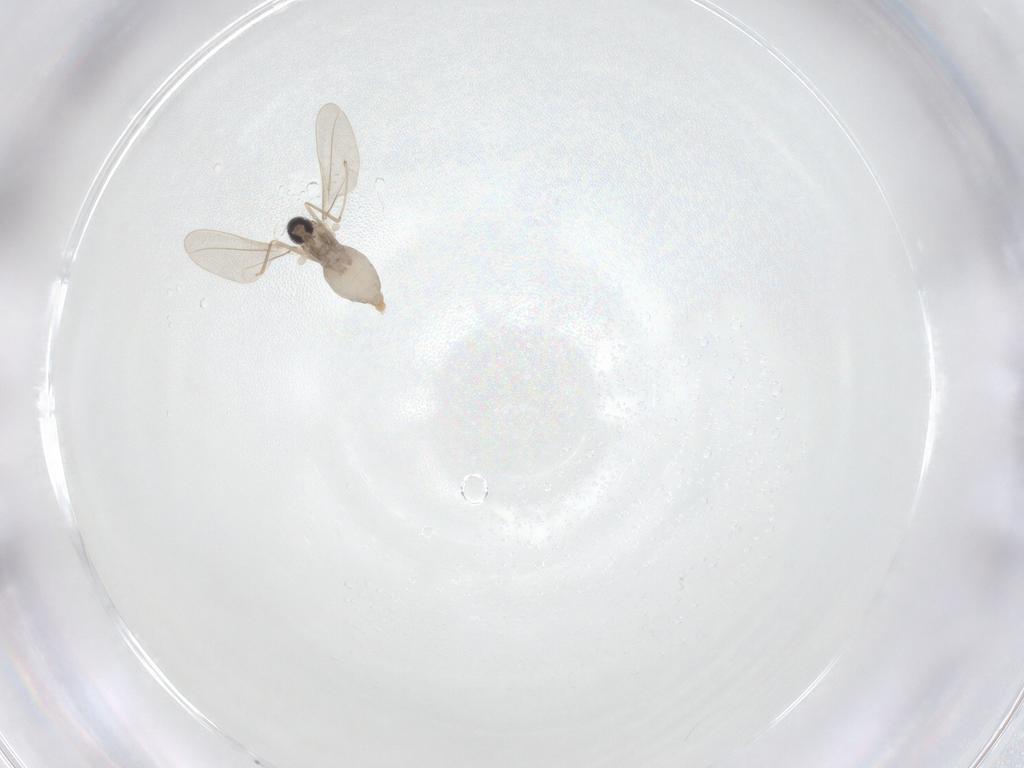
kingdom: Animalia
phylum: Arthropoda
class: Insecta
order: Diptera
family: Cecidomyiidae
